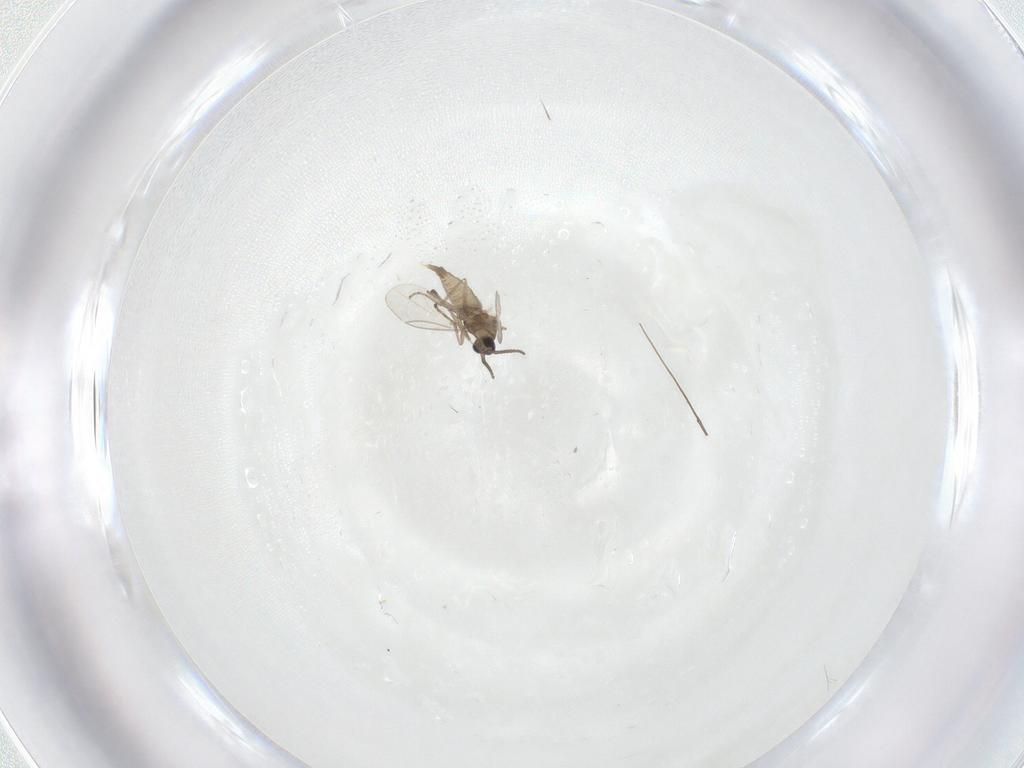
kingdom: Animalia
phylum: Arthropoda
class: Insecta
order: Diptera
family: Cecidomyiidae
